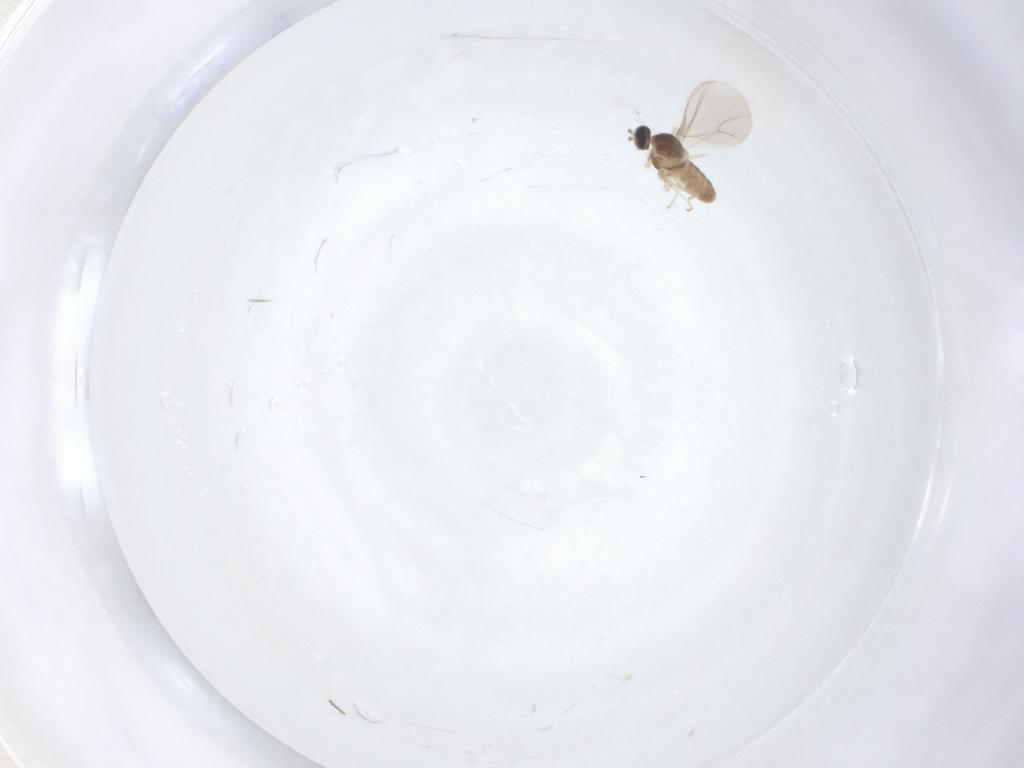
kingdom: Animalia
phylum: Arthropoda
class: Insecta
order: Diptera
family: Cecidomyiidae
